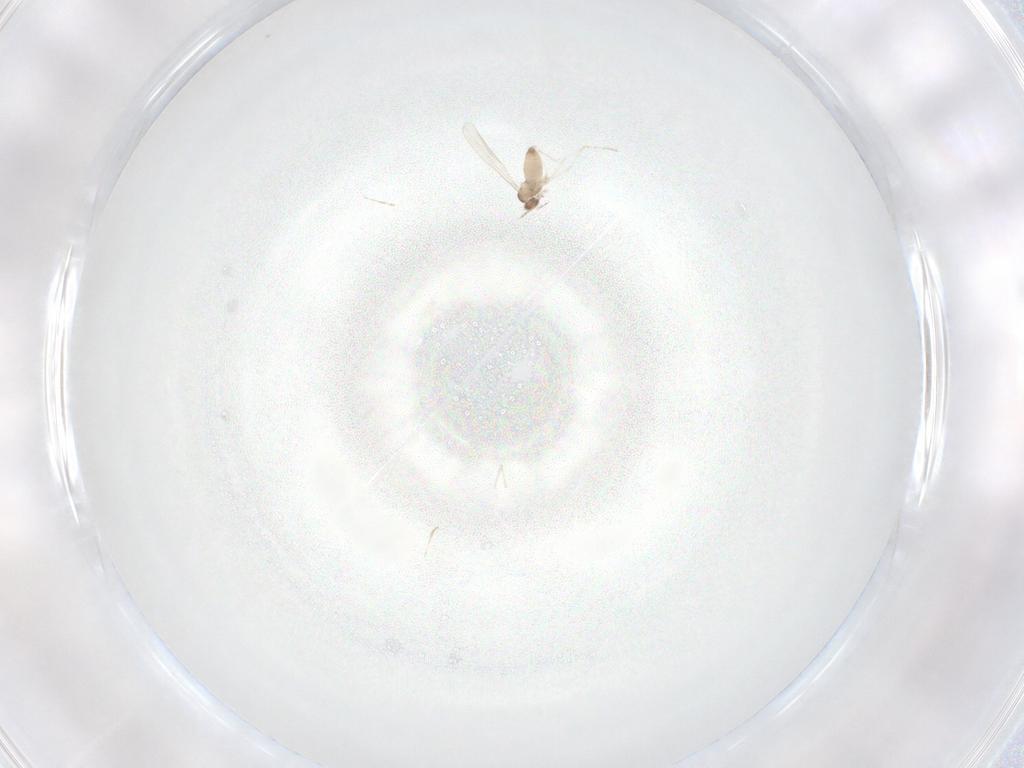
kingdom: Animalia
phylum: Arthropoda
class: Insecta
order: Diptera
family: Cecidomyiidae
